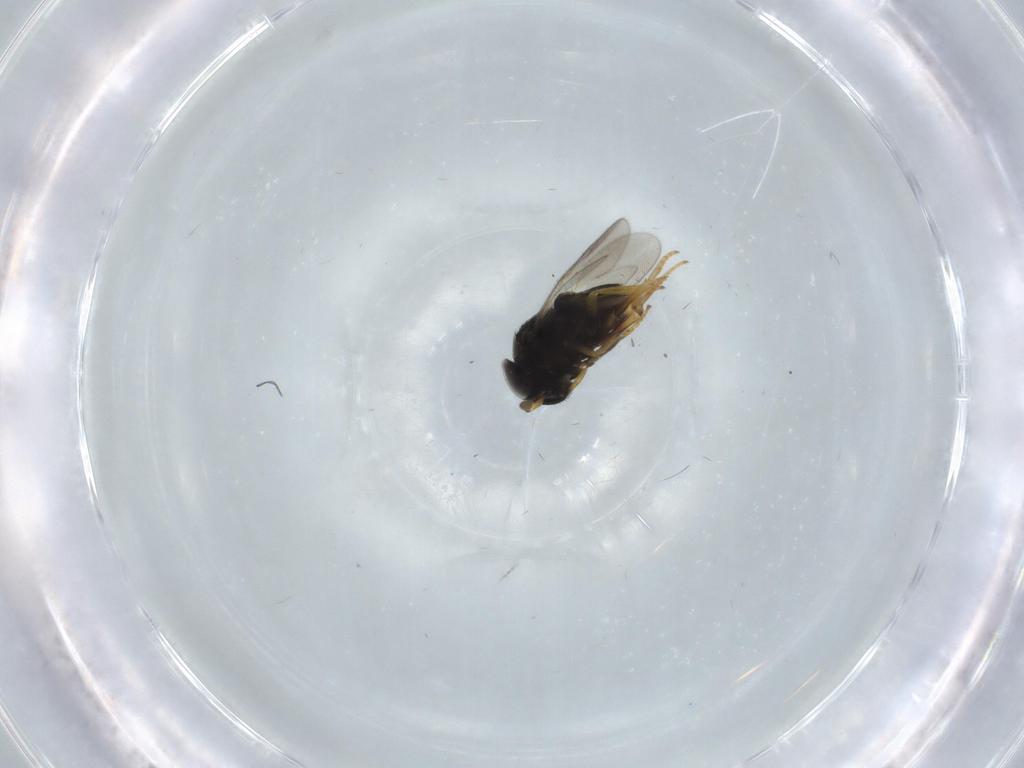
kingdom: Animalia
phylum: Arthropoda
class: Insecta
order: Hymenoptera
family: Encyrtidae
